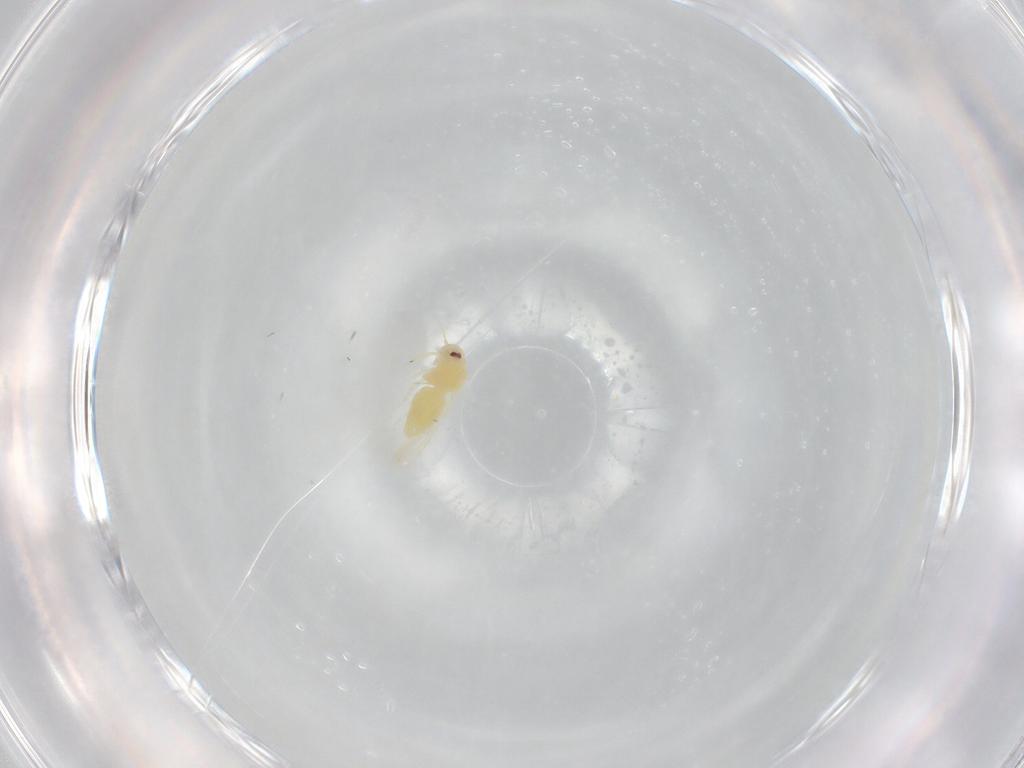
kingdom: Animalia
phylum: Arthropoda
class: Insecta
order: Hemiptera
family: Aleyrodidae
